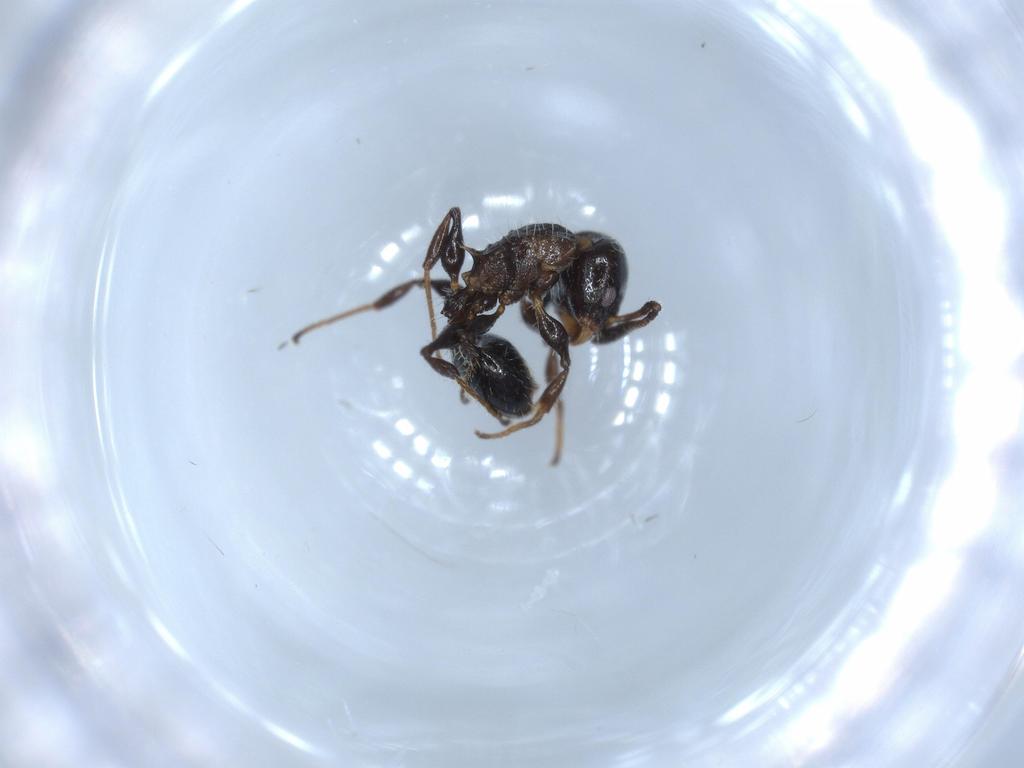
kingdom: Animalia
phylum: Arthropoda
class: Insecta
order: Hymenoptera
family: Formicidae
